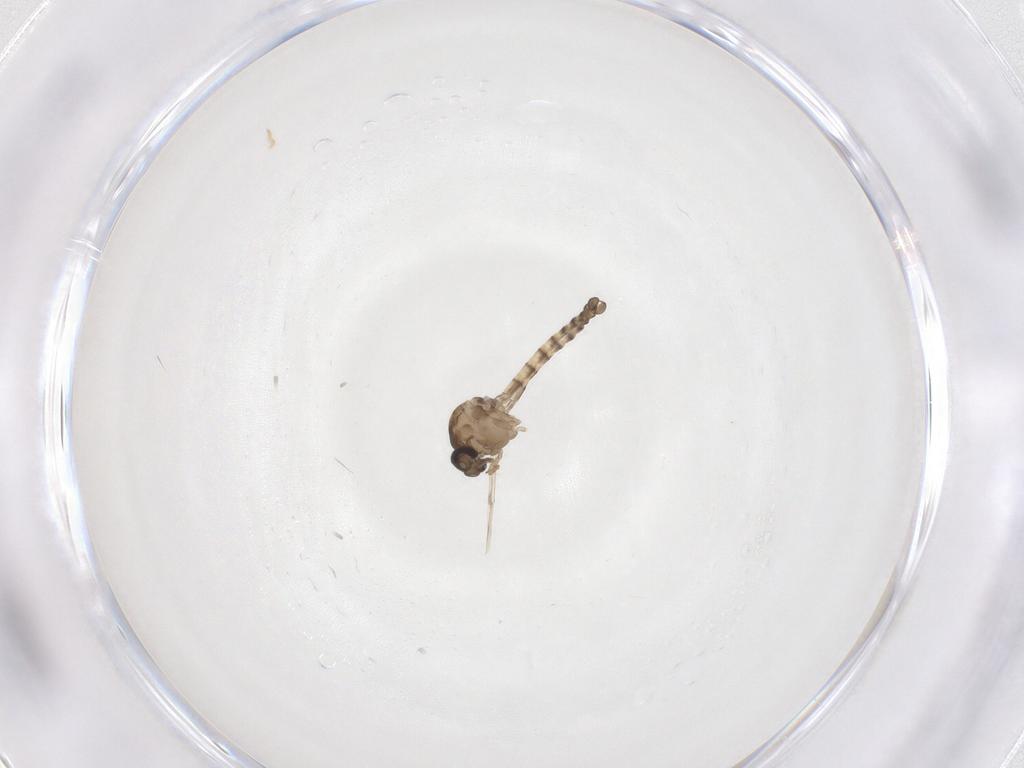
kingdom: Animalia
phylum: Arthropoda
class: Insecta
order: Diptera
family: Ceratopogonidae
